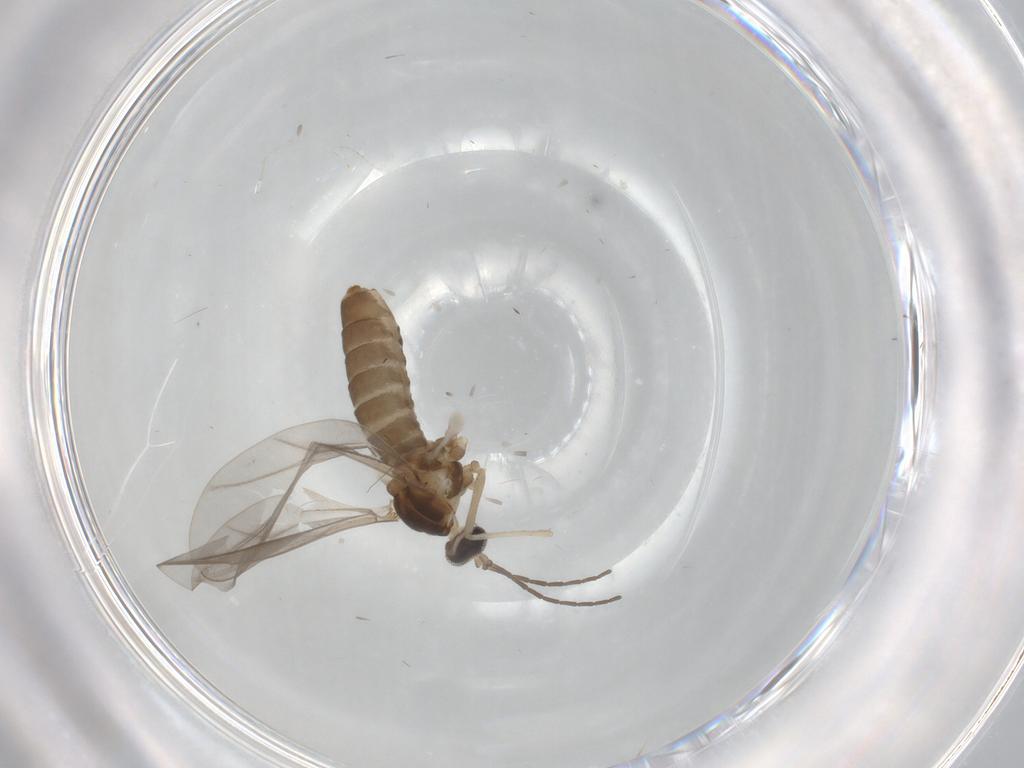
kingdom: Animalia
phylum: Arthropoda
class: Insecta
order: Diptera
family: Cecidomyiidae
